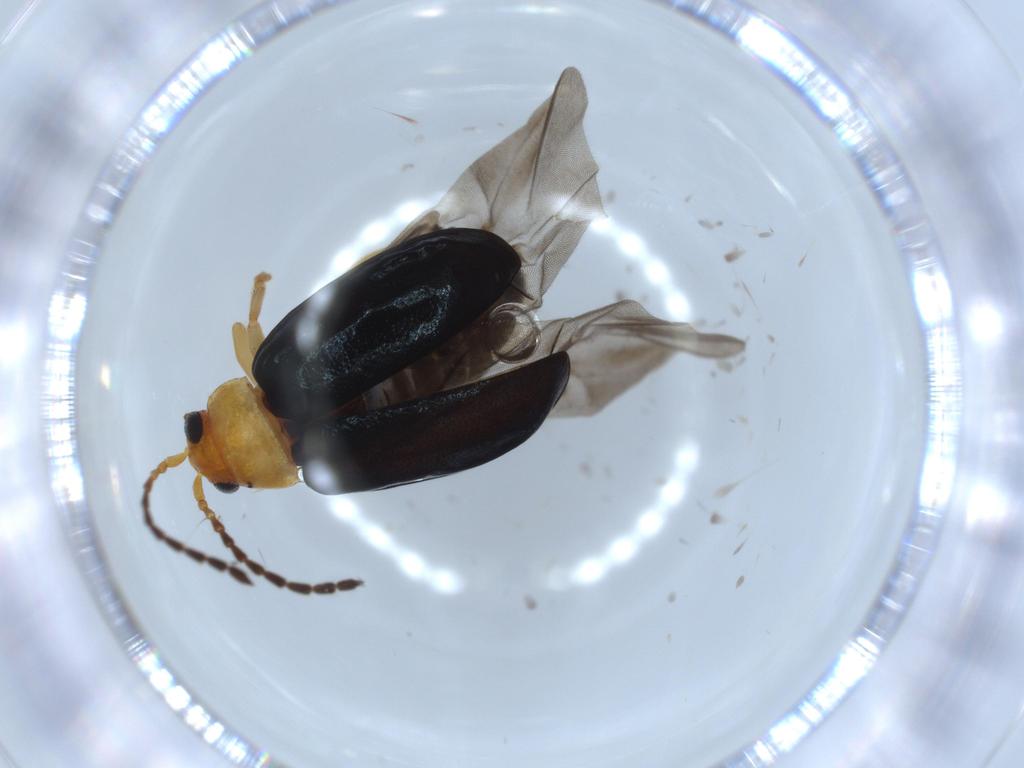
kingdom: Animalia
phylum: Arthropoda
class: Insecta
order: Coleoptera
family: Chrysomelidae
